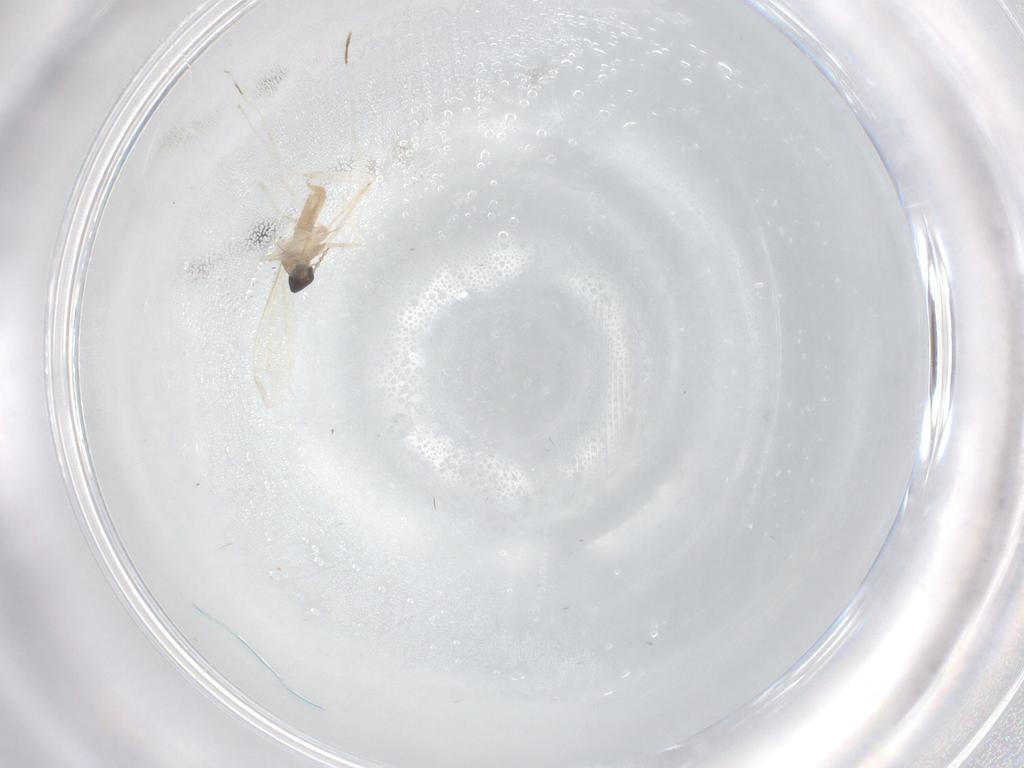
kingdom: Animalia
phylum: Arthropoda
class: Insecta
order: Diptera
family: Cecidomyiidae
